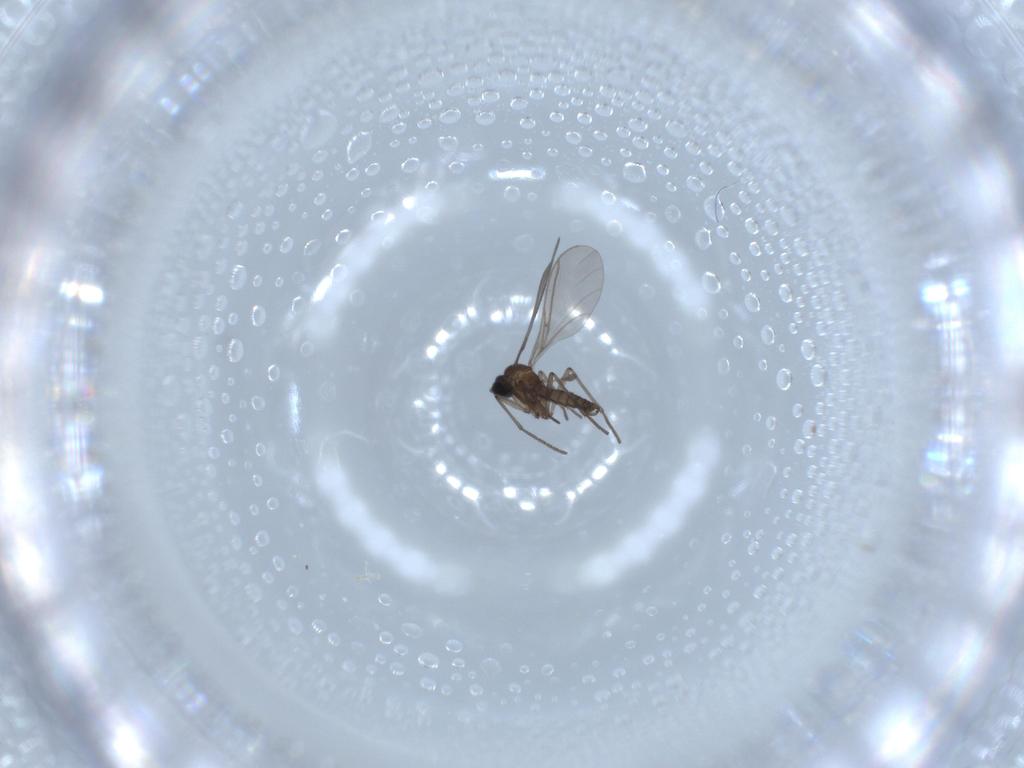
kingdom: Animalia
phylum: Arthropoda
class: Insecta
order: Diptera
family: Sciaridae
